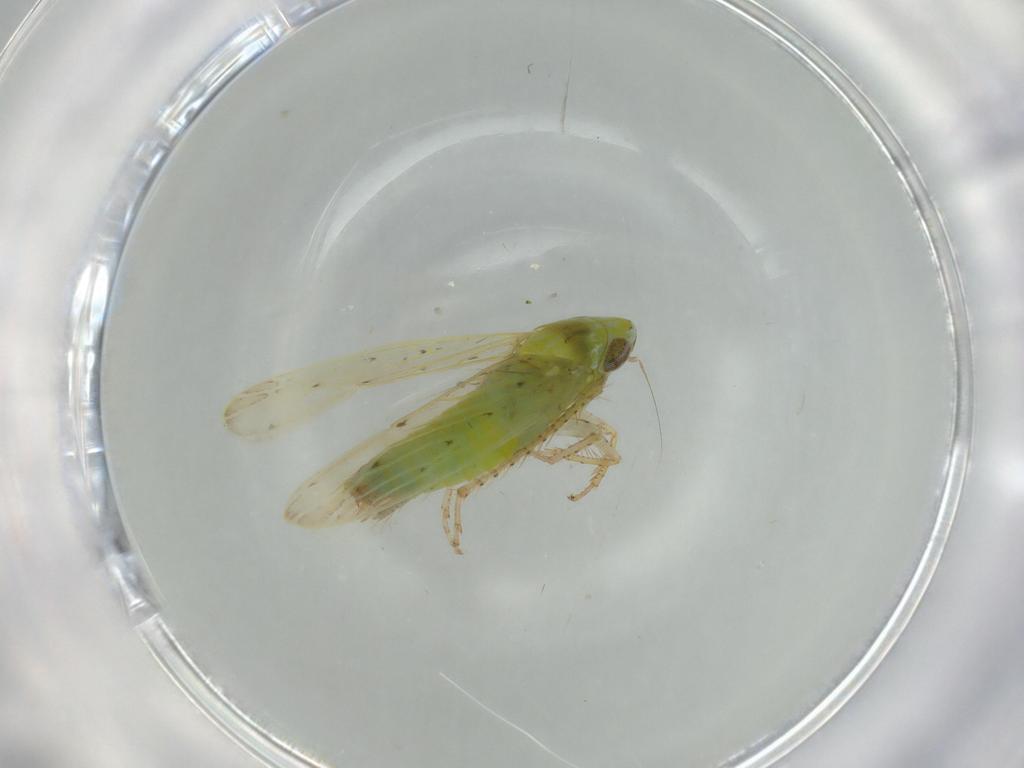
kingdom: Animalia
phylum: Arthropoda
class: Insecta
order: Hemiptera
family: Cicadellidae
